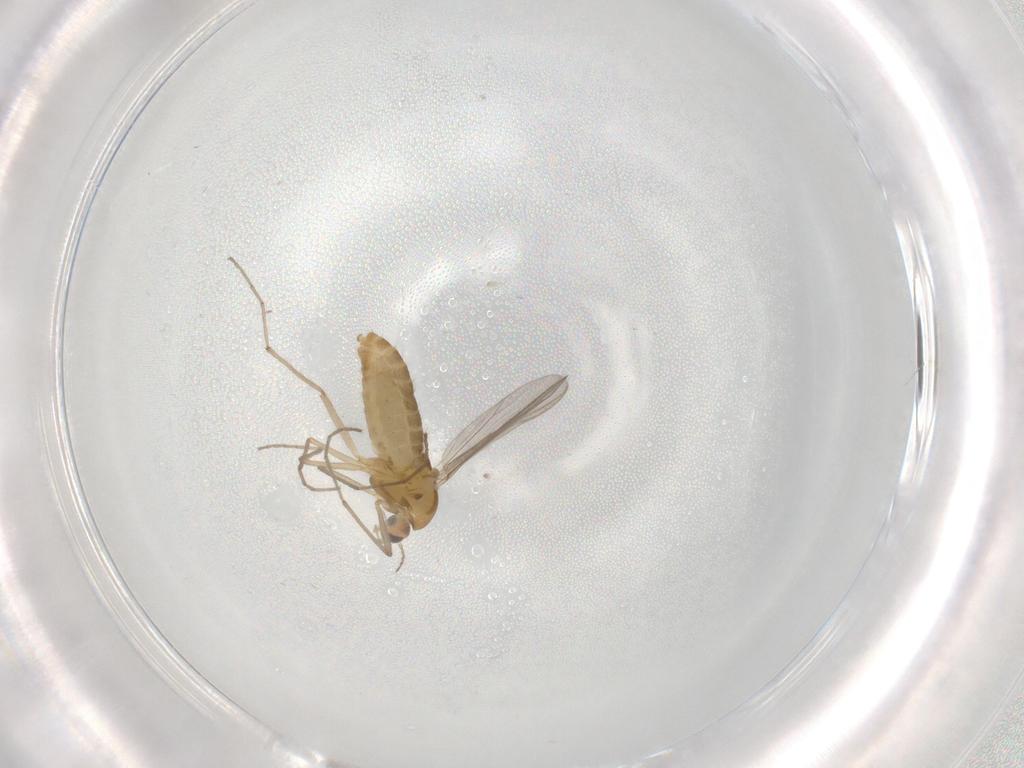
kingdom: Animalia
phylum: Arthropoda
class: Insecta
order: Diptera
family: Chironomidae
